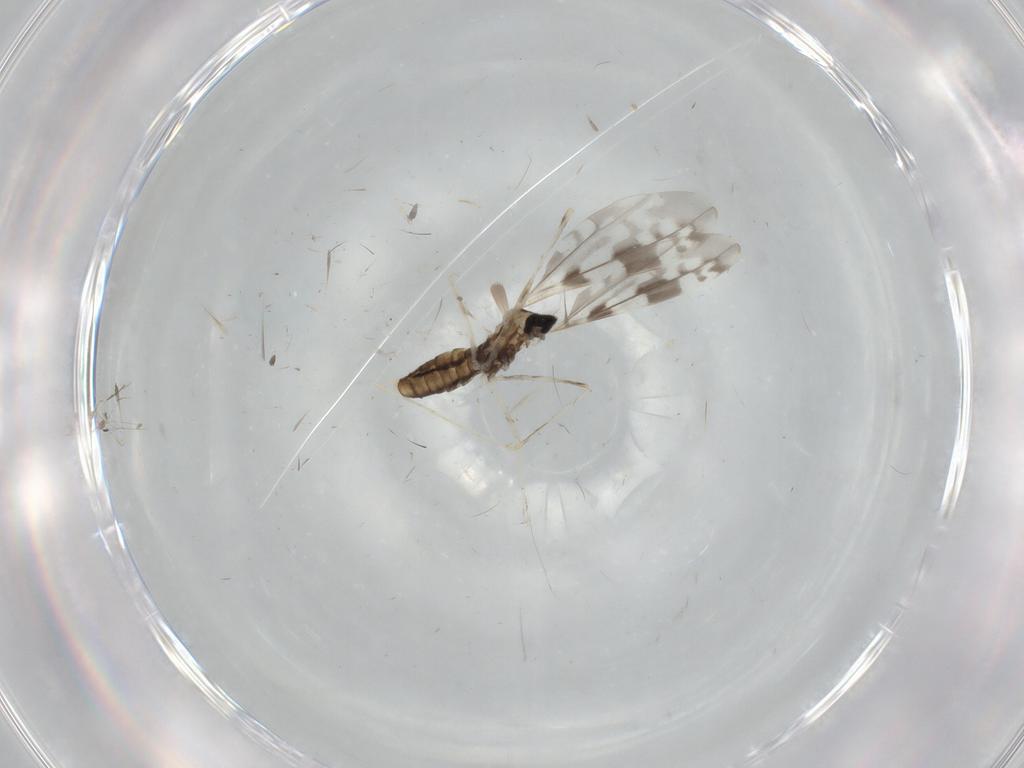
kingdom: Animalia
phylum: Arthropoda
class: Insecta
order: Diptera
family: Cecidomyiidae
